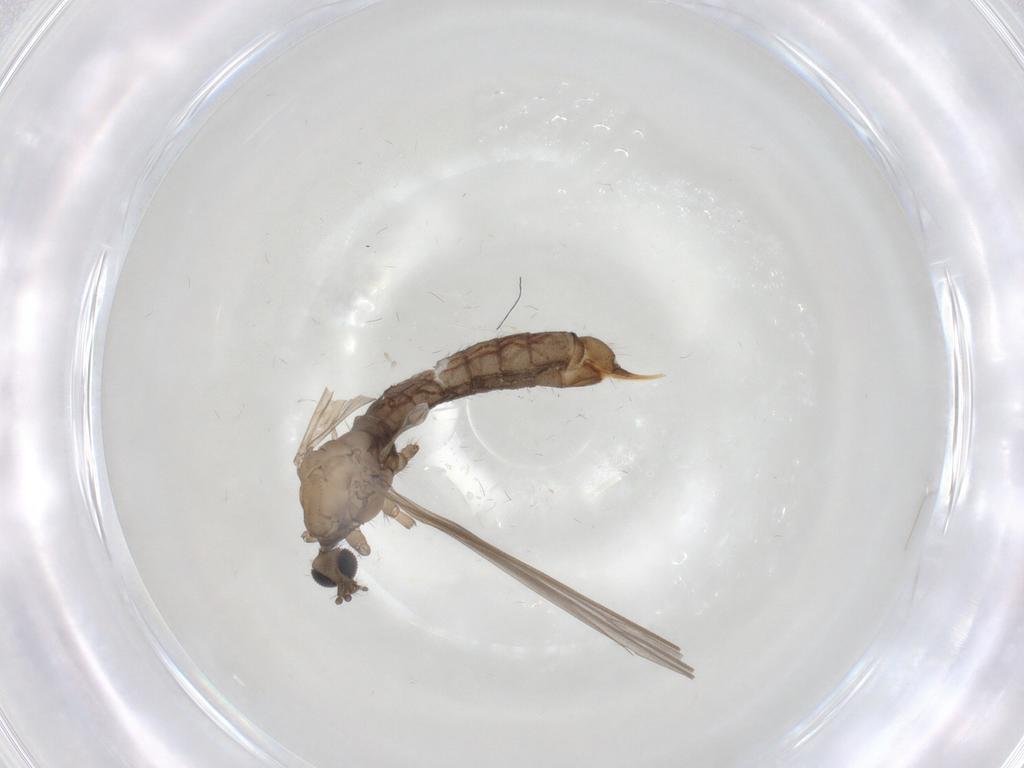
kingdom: Animalia
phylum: Arthropoda
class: Insecta
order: Diptera
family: Limoniidae
